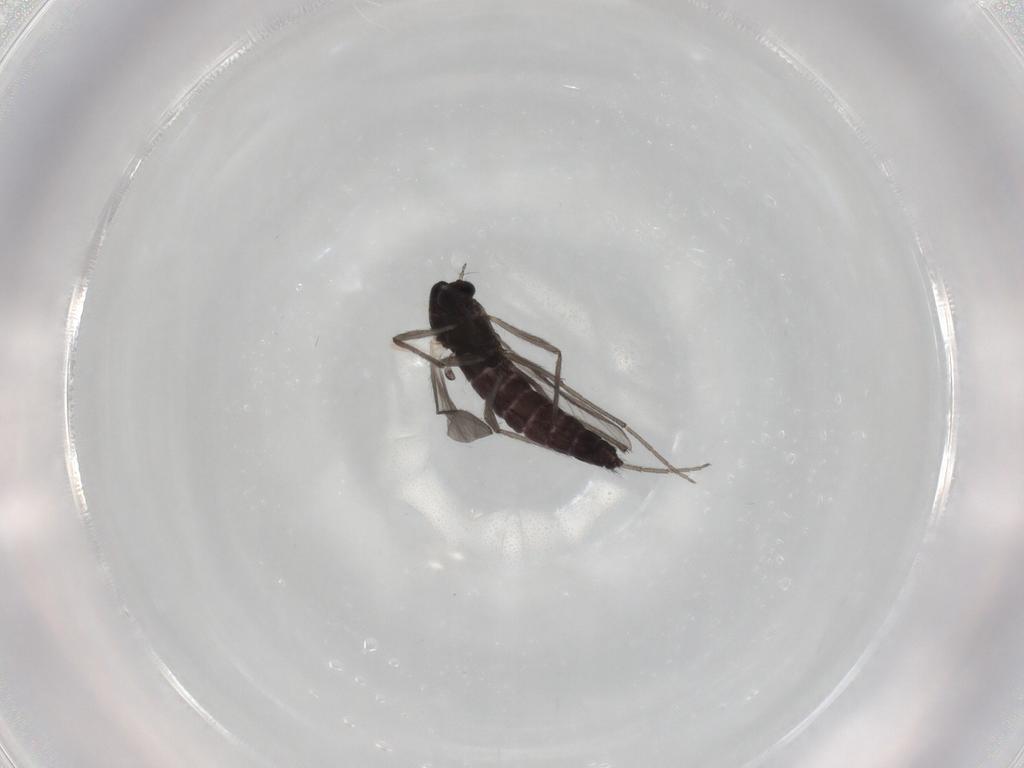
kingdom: Animalia
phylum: Arthropoda
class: Insecta
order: Diptera
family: Chironomidae
